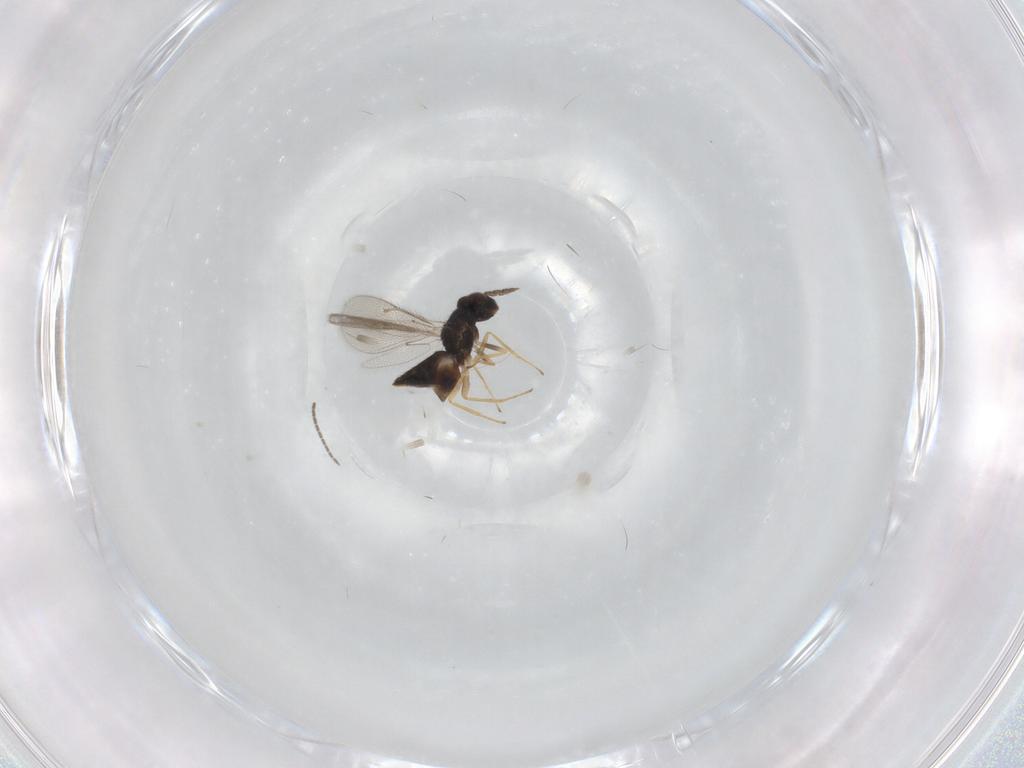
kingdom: Animalia
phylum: Arthropoda
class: Insecta
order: Hymenoptera
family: Eulophidae
